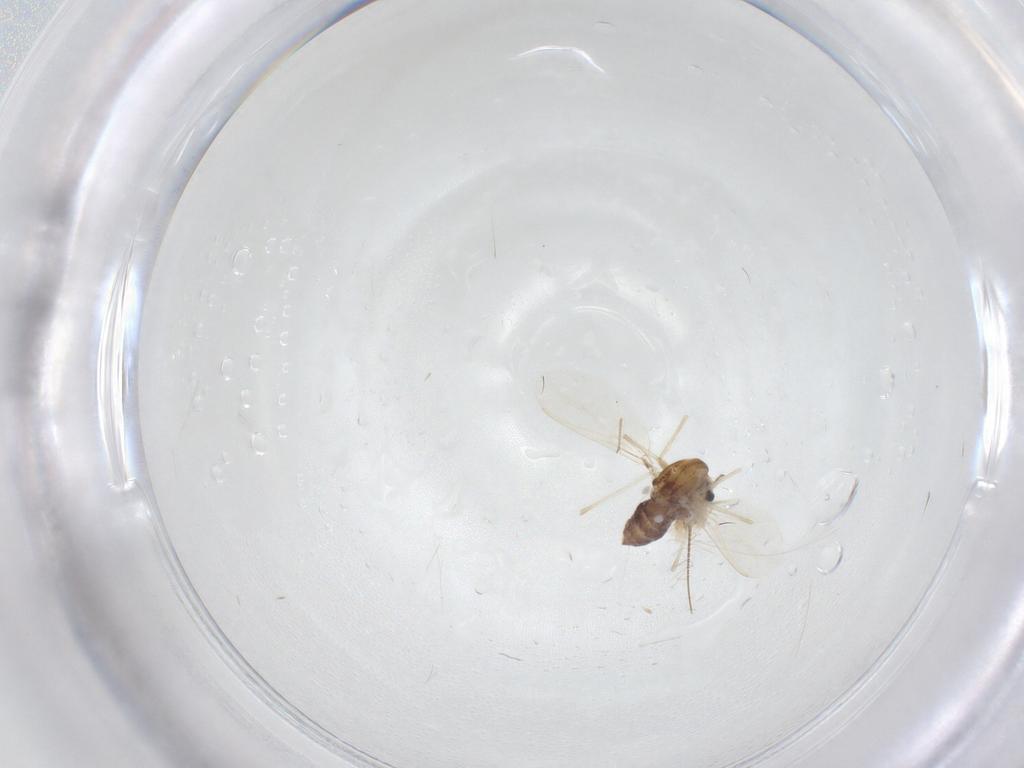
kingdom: Animalia
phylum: Arthropoda
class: Insecta
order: Diptera
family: Chironomidae
